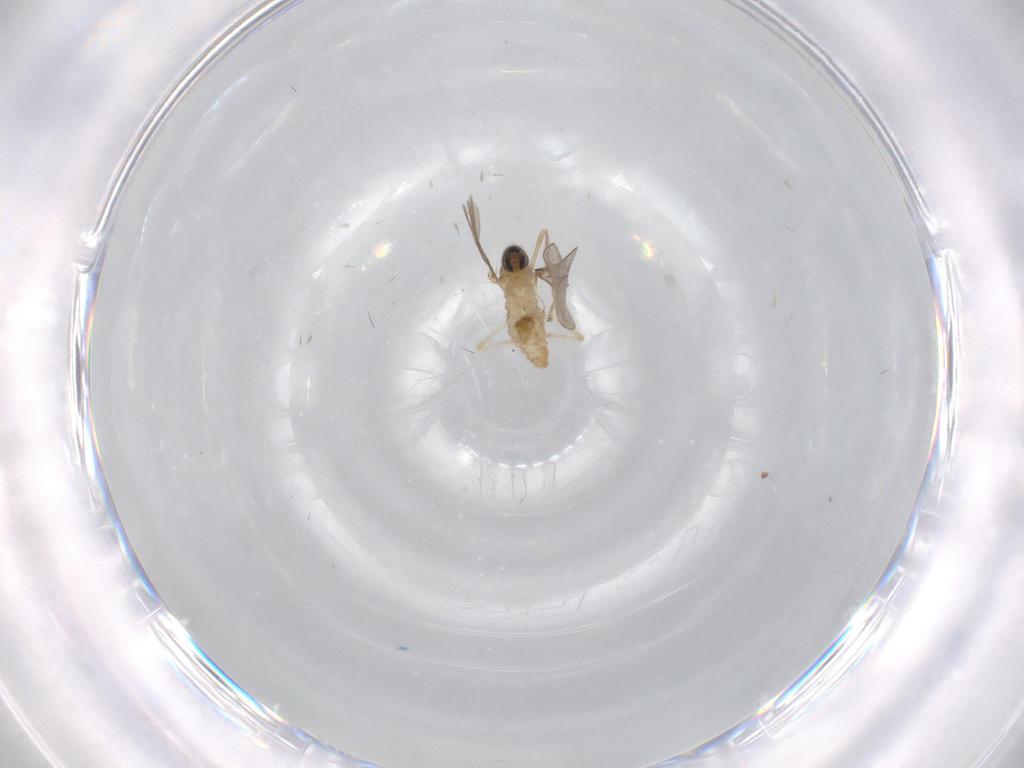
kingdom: Animalia
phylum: Arthropoda
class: Insecta
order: Diptera
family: Cecidomyiidae
